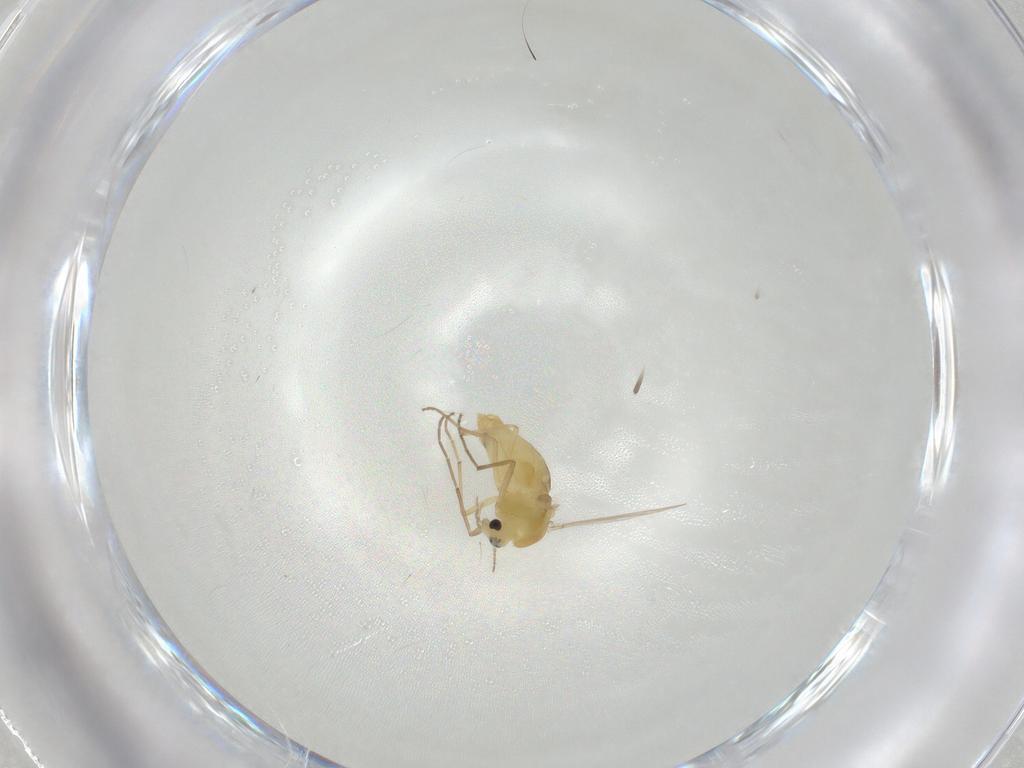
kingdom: Animalia
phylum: Arthropoda
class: Insecta
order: Diptera
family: Chironomidae
